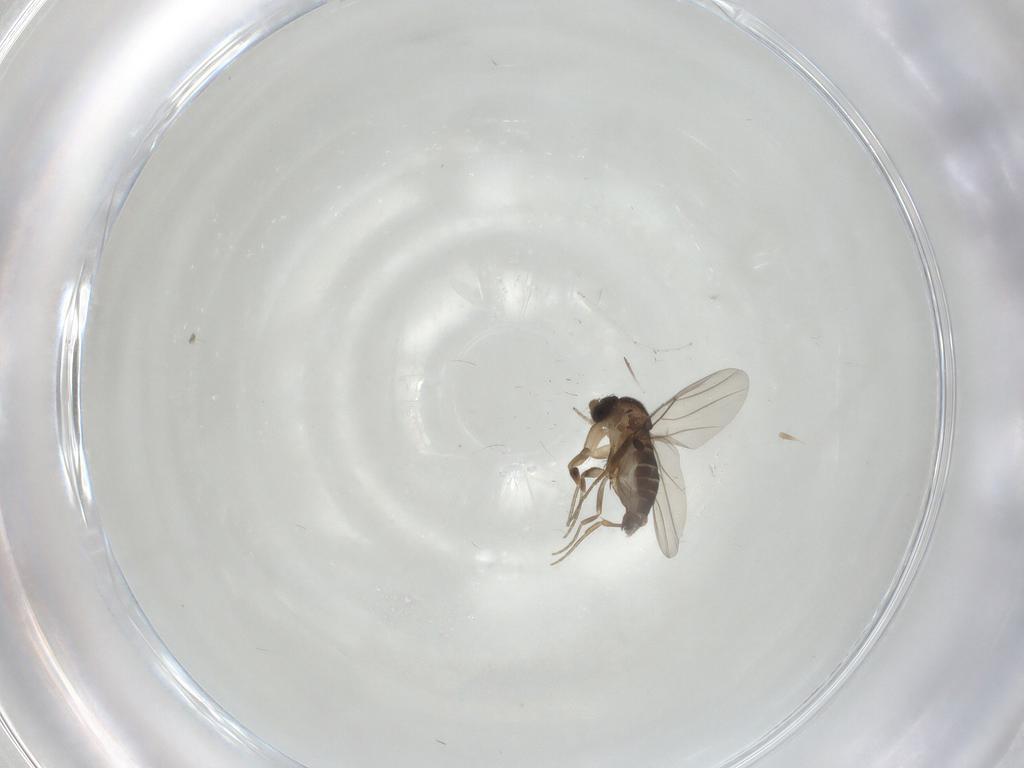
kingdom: Animalia
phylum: Arthropoda
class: Insecta
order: Diptera
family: Phoridae
